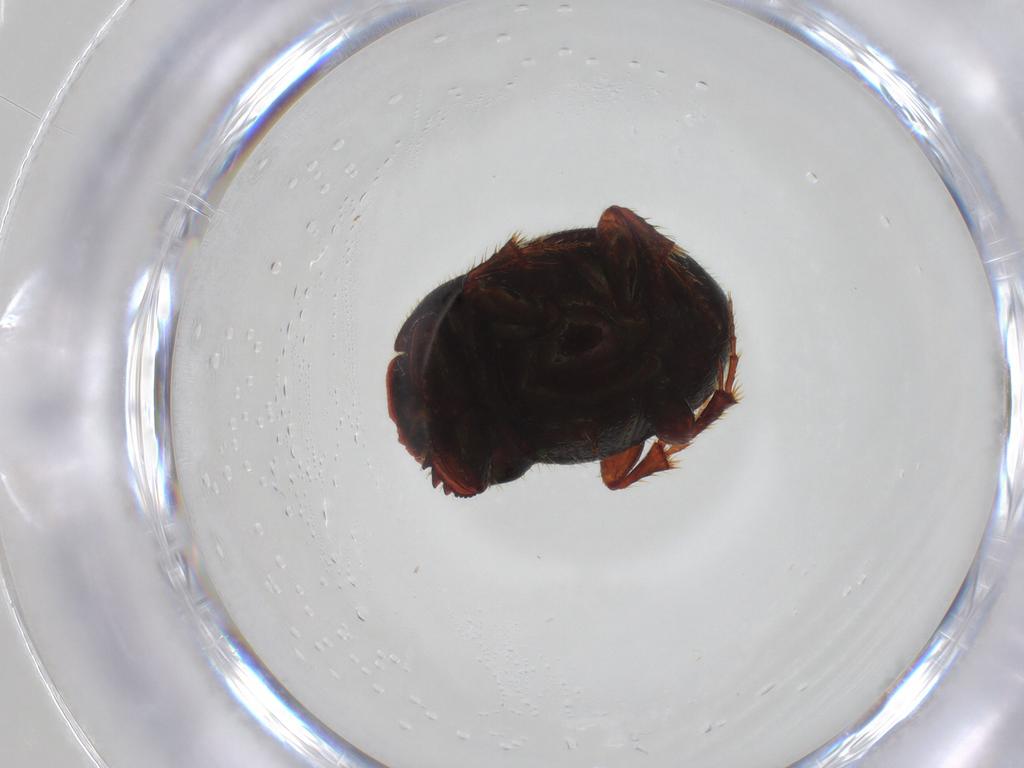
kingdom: Animalia
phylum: Arthropoda
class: Insecta
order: Coleoptera
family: Scarabaeidae
